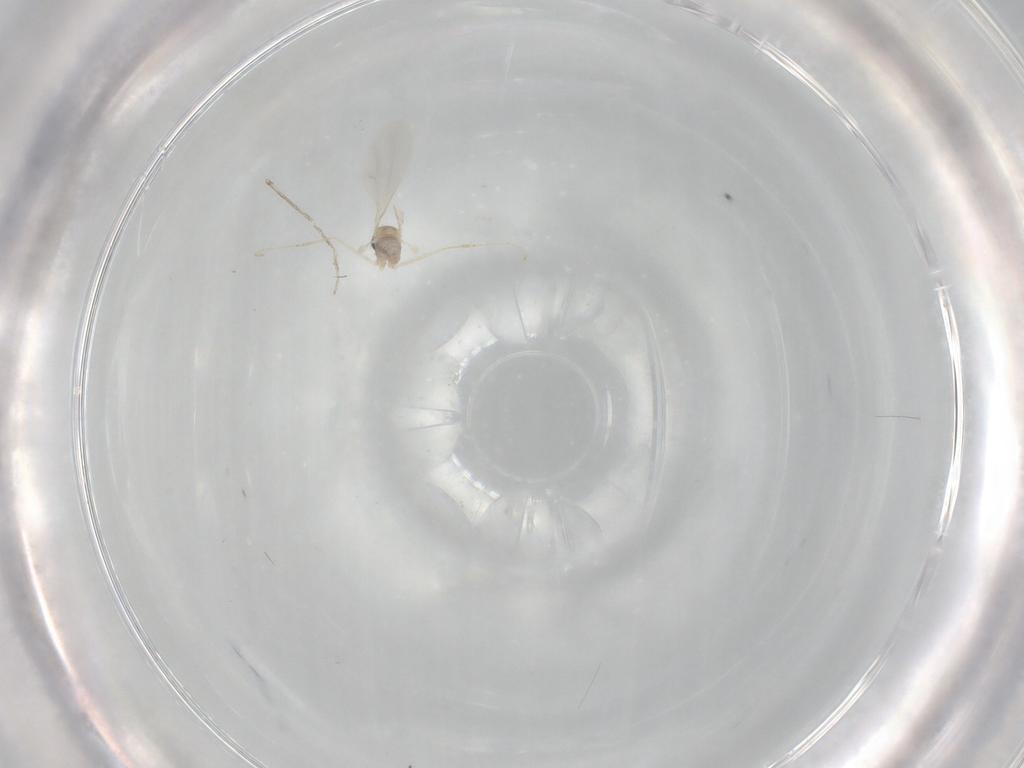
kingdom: Animalia
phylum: Arthropoda
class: Insecta
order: Diptera
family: Cecidomyiidae
